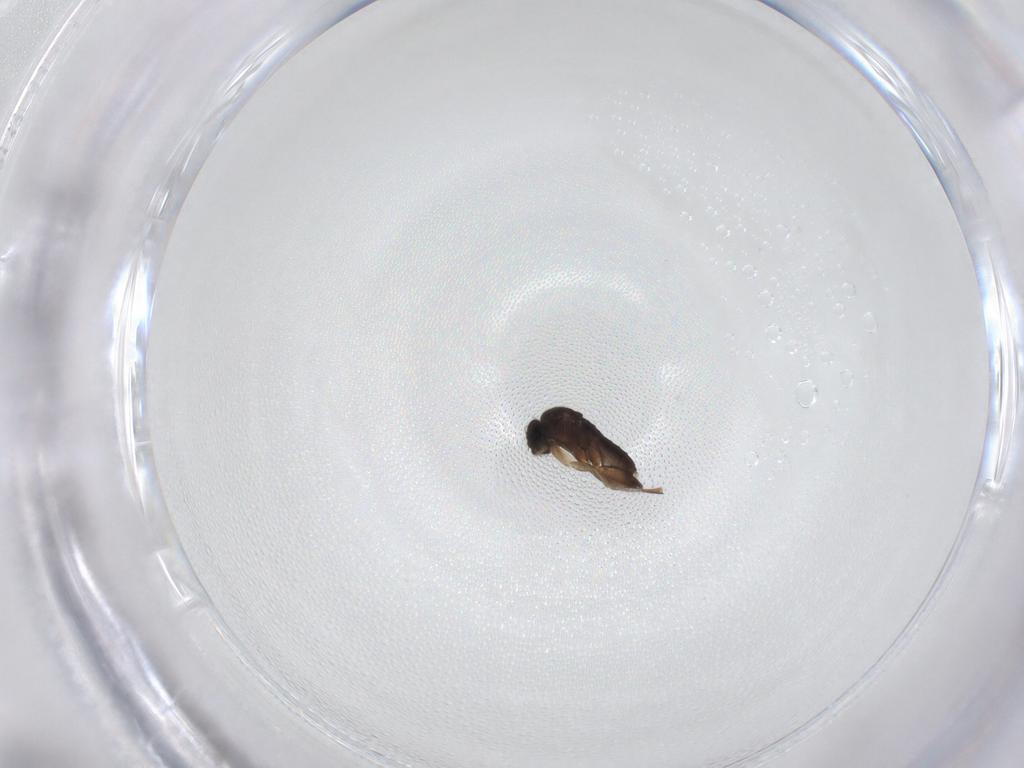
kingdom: Animalia
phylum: Arthropoda
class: Insecta
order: Diptera
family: Phoridae
